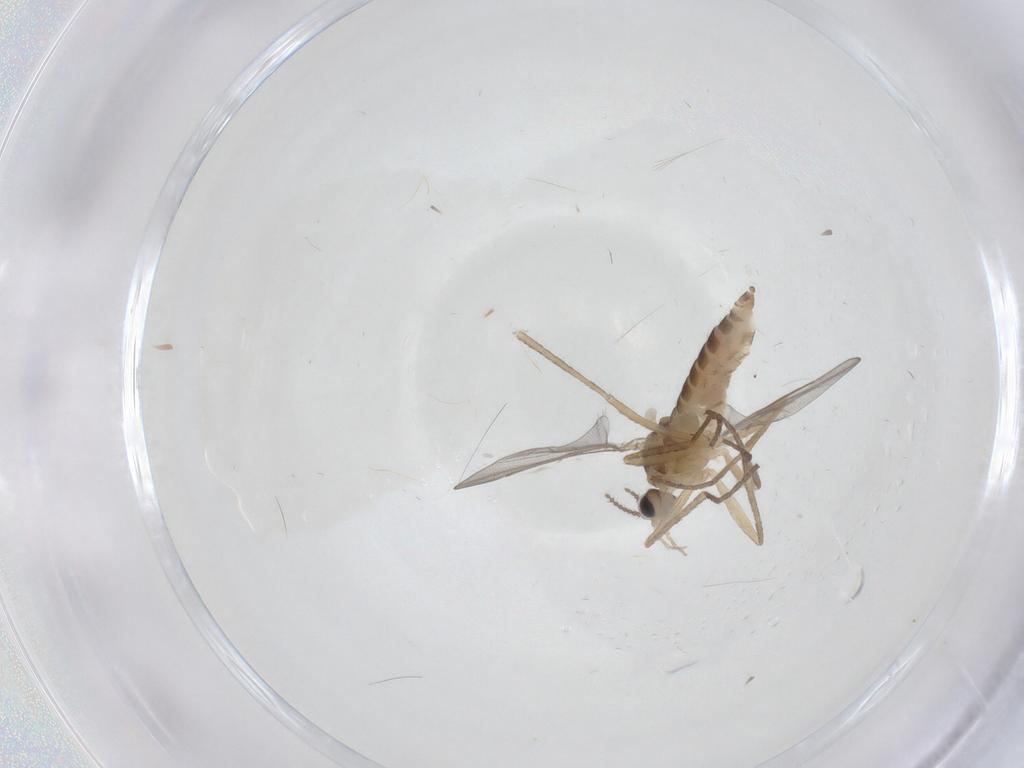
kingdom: Animalia
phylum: Arthropoda
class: Insecta
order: Diptera
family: Cecidomyiidae
